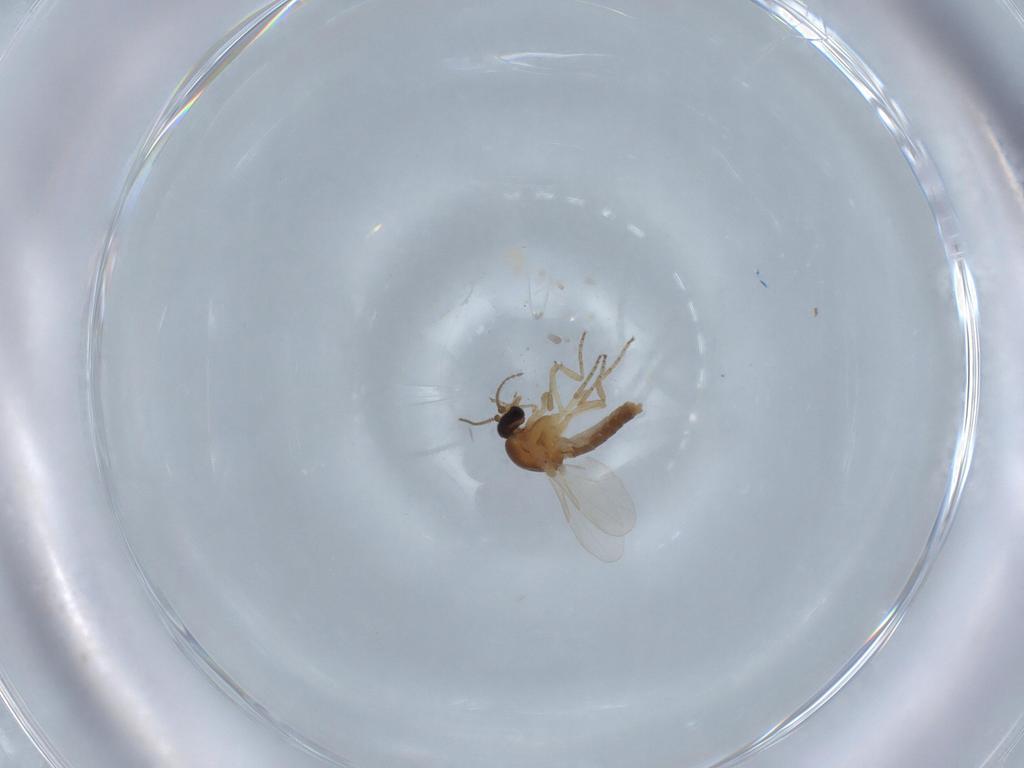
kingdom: Animalia
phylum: Arthropoda
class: Insecta
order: Diptera
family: Ceratopogonidae
